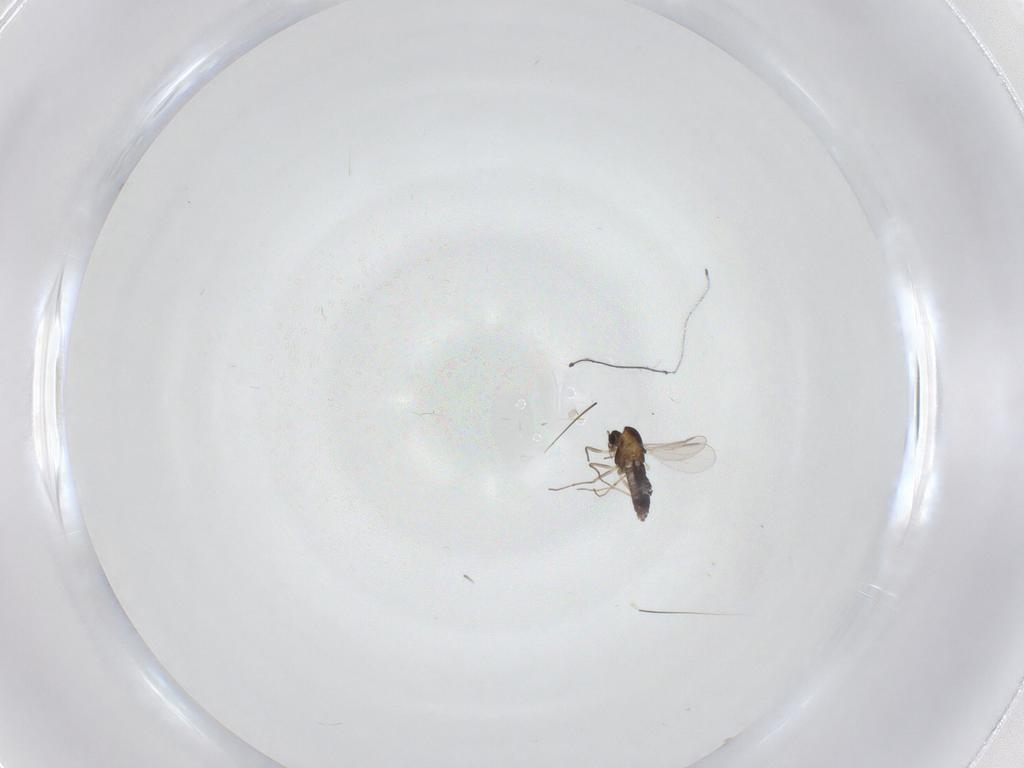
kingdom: Animalia
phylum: Arthropoda
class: Insecta
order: Diptera
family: Chironomidae
